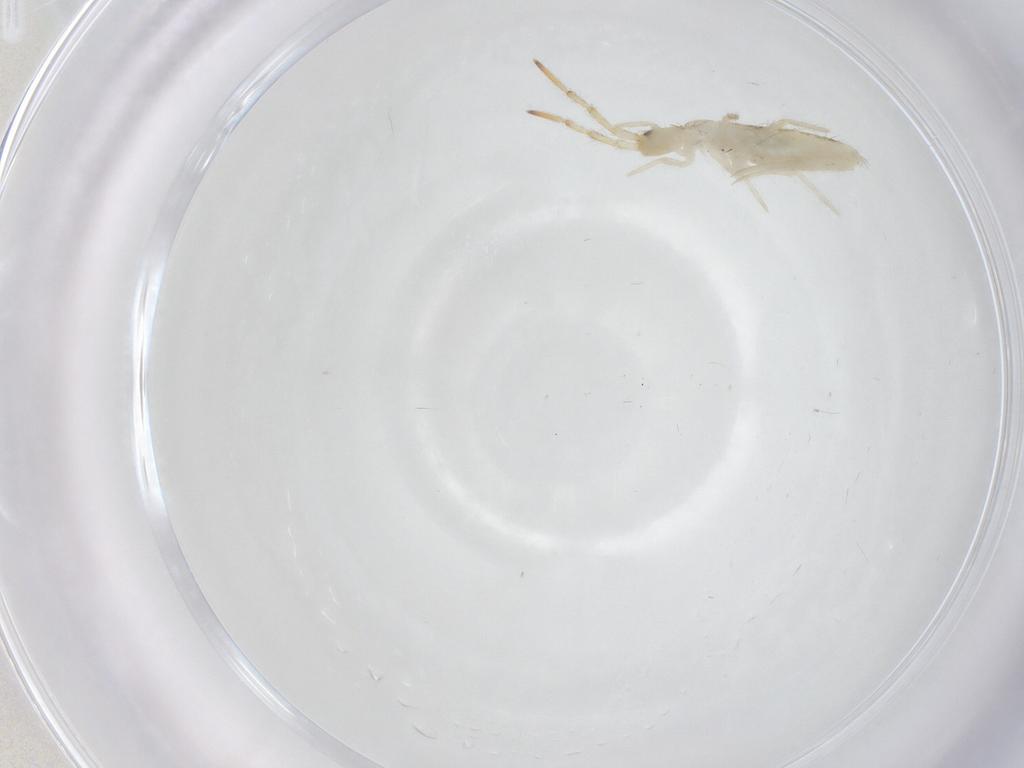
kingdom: Animalia
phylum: Arthropoda
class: Collembola
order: Entomobryomorpha
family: Entomobryidae
